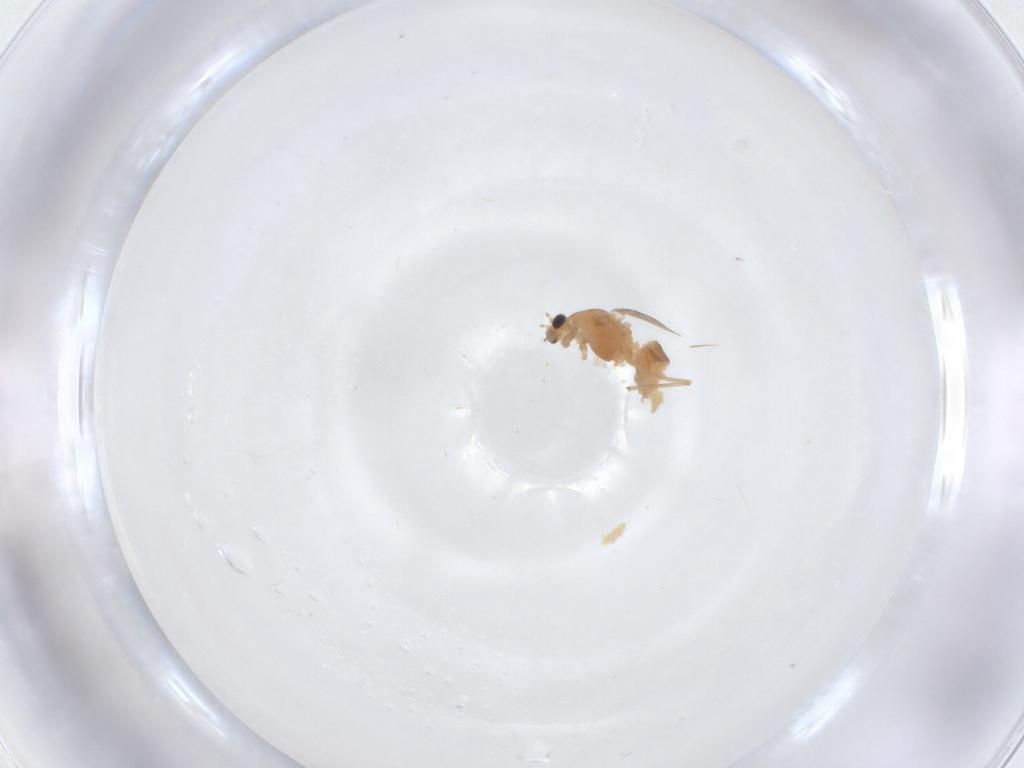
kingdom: Animalia
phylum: Arthropoda
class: Insecta
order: Diptera
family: Chironomidae
